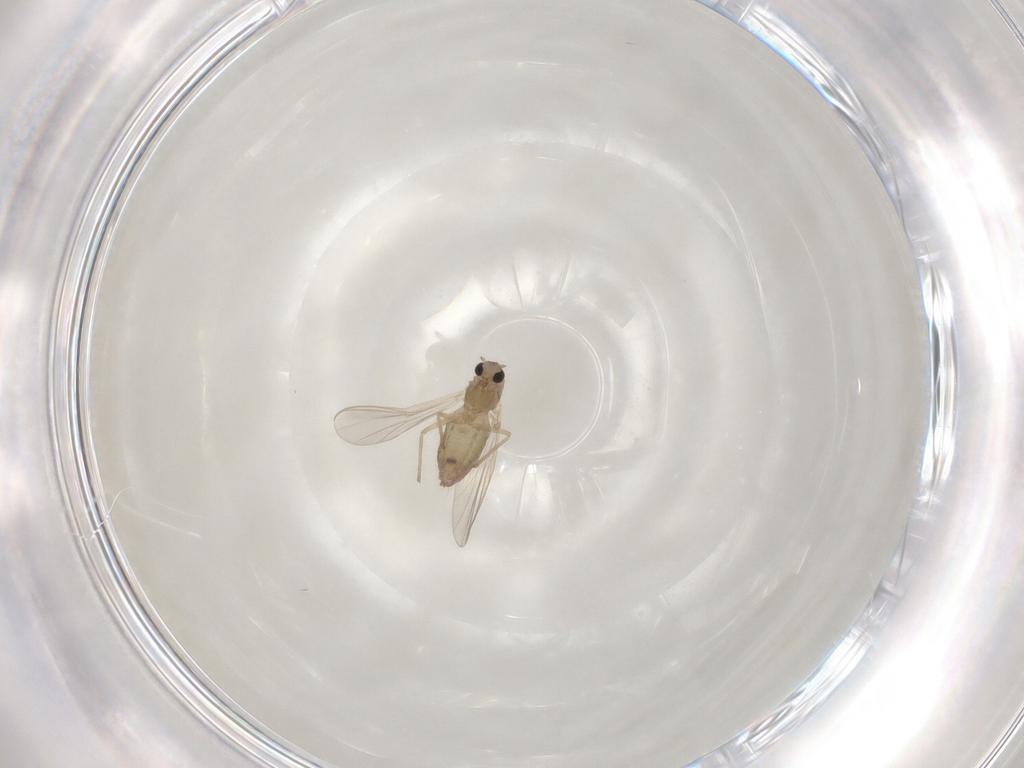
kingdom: Animalia
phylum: Arthropoda
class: Insecta
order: Diptera
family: Chironomidae
